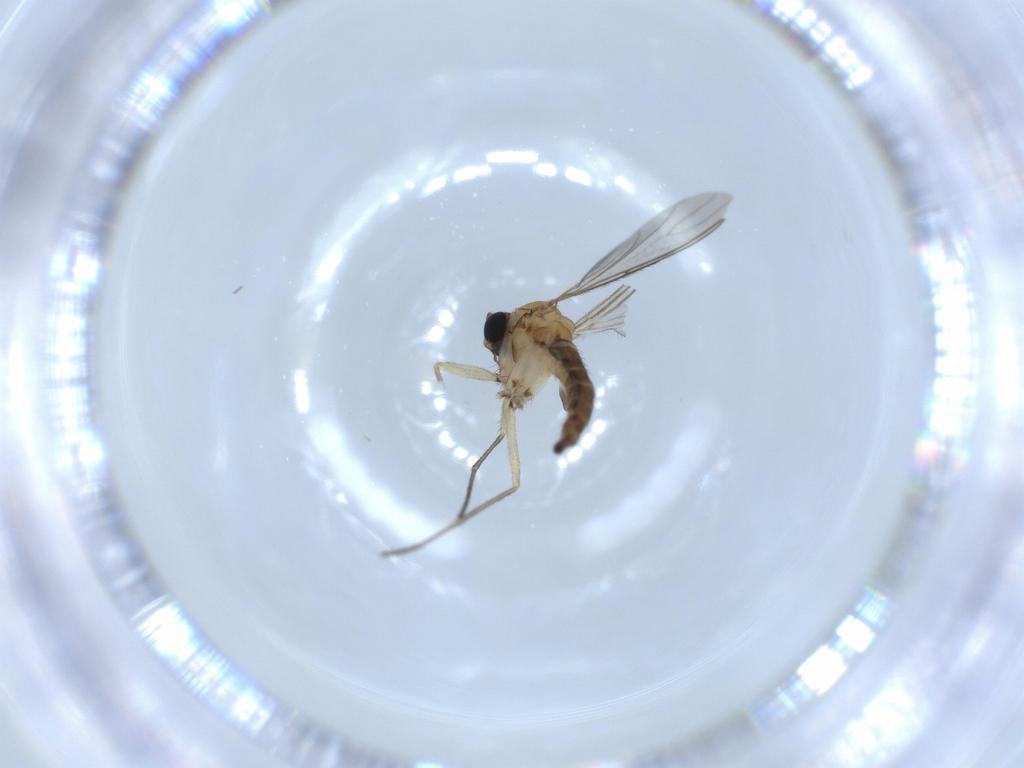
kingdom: Animalia
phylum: Arthropoda
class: Insecta
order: Diptera
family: Sciaridae
